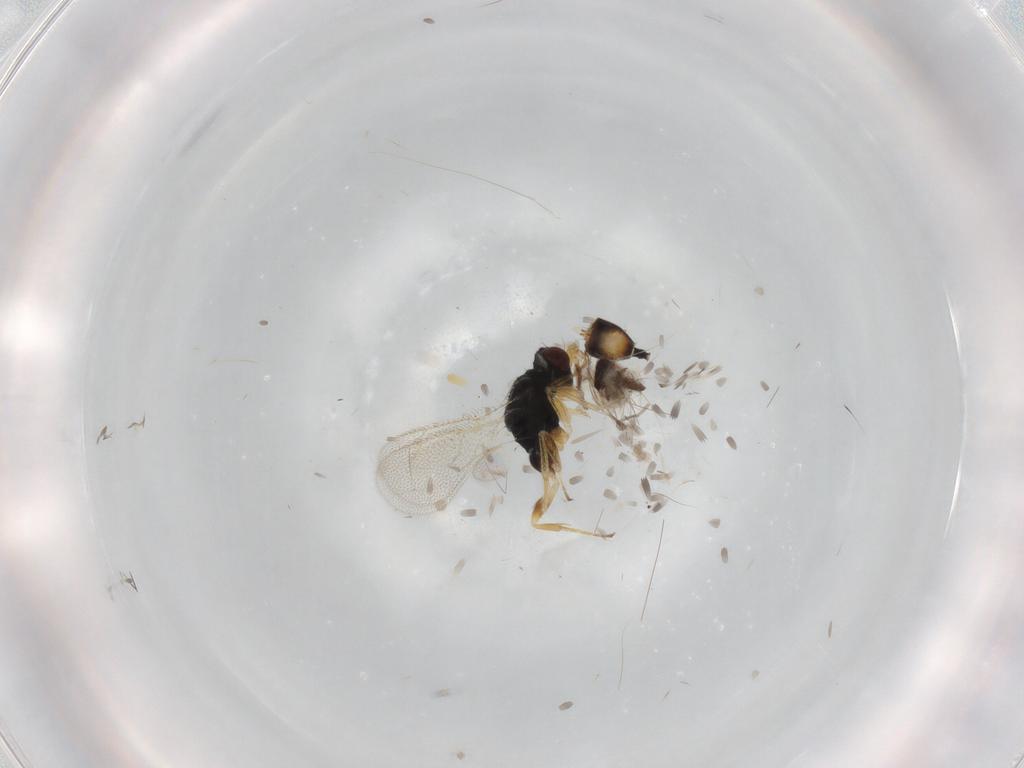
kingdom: Animalia
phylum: Arthropoda
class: Insecta
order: Hymenoptera
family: Eulophidae
